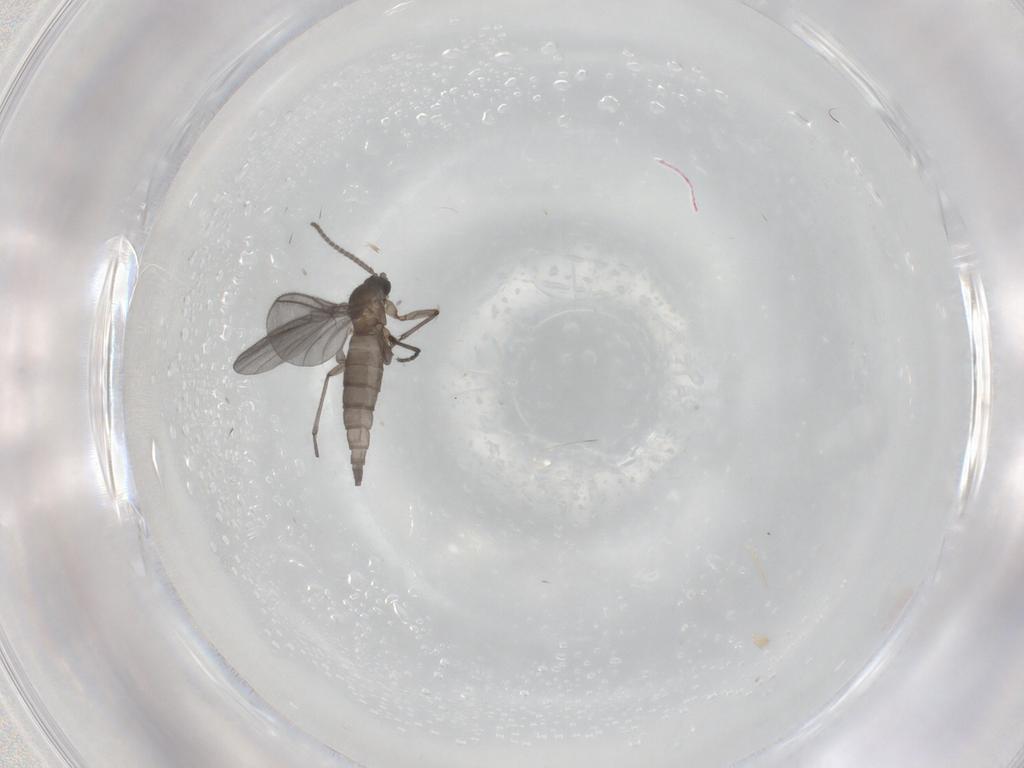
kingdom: Animalia
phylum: Arthropoda
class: Insecta
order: Diptera
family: Sciaridae
